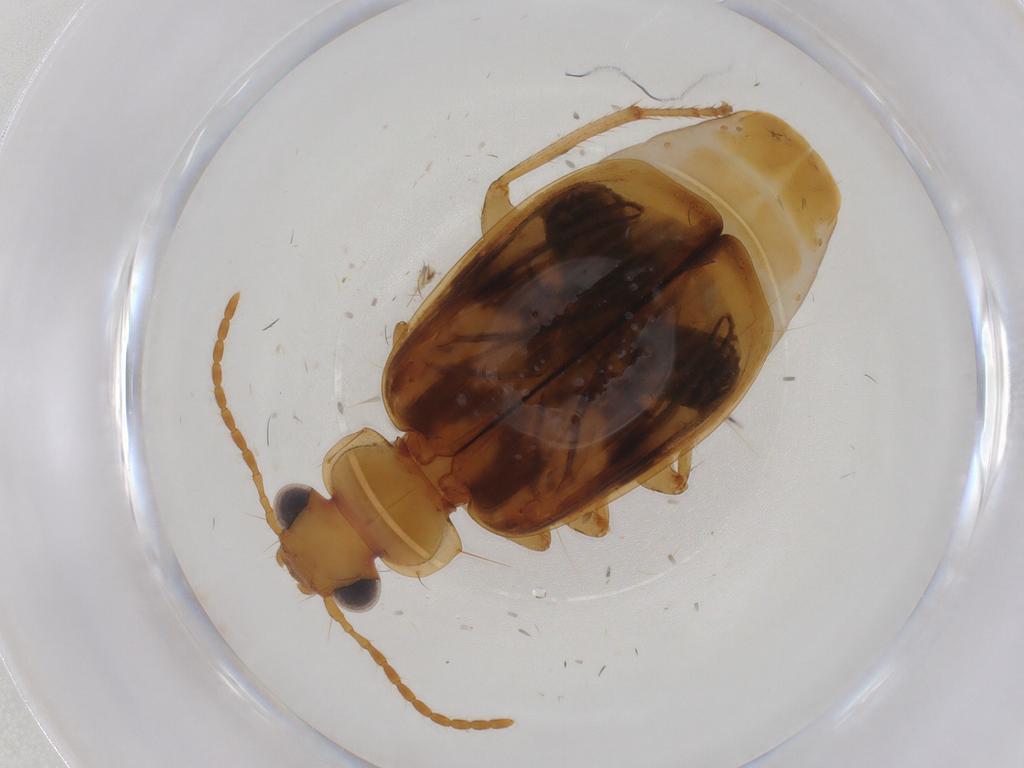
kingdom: Animalia
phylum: Arthropoda
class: Insecta
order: Coleoptera
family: Carabidae
